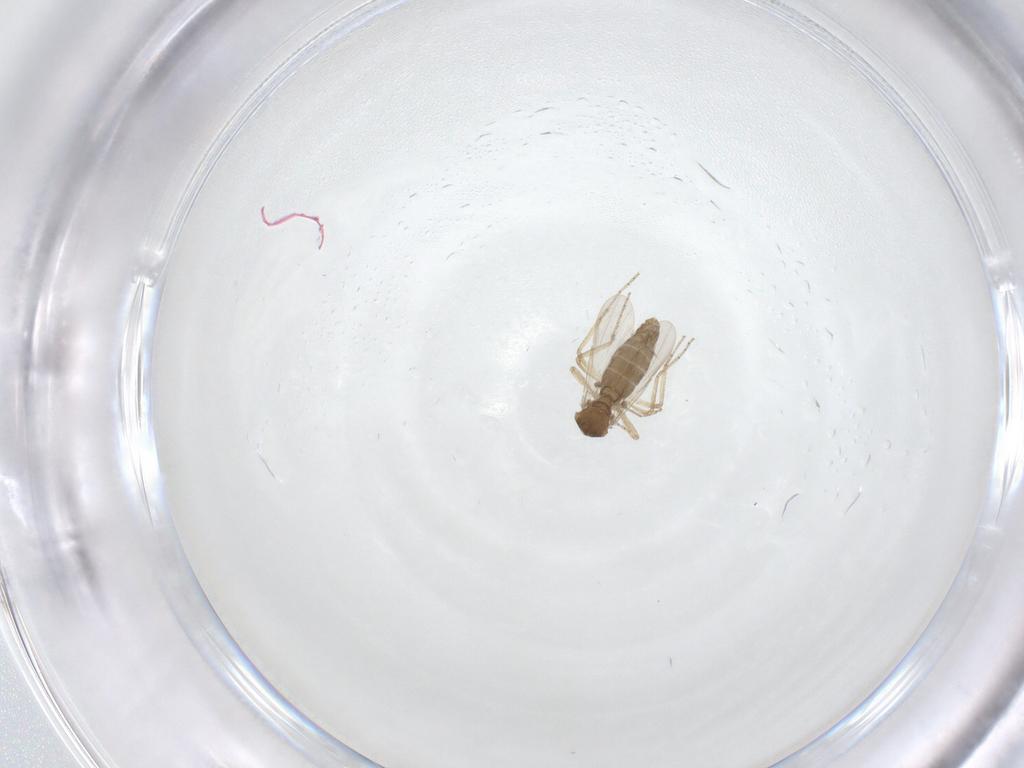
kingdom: Animalia
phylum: Arthropoda
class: Insecta
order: Diptera
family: Ceratopogonidae
